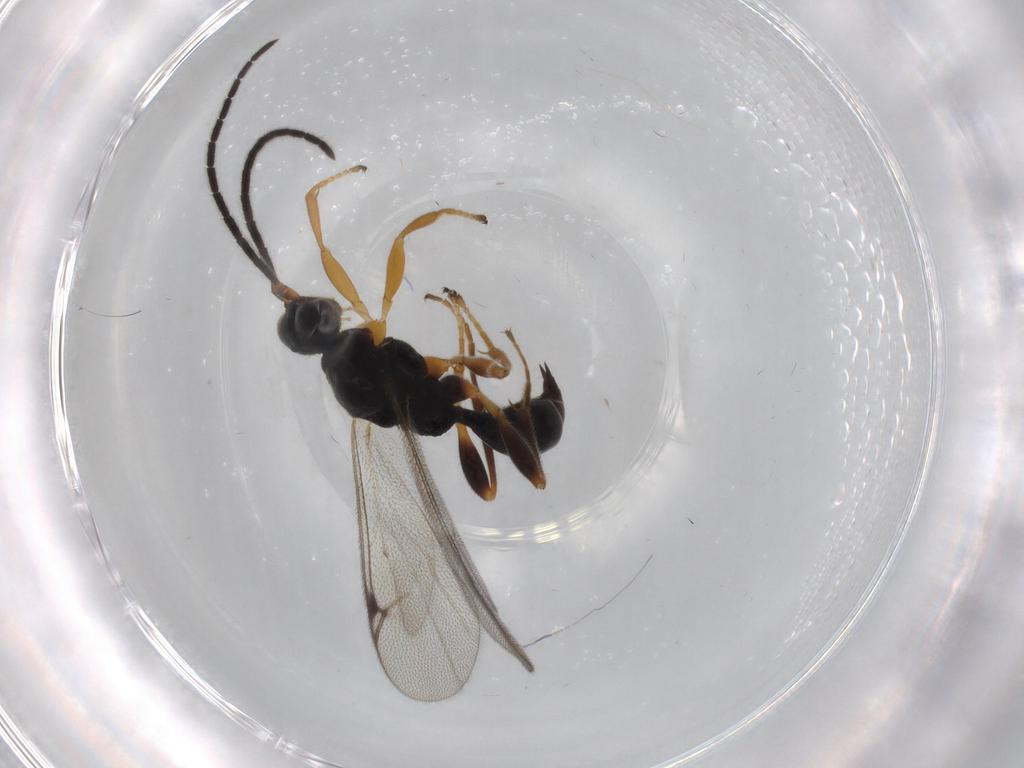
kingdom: Animalia
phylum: Arthropoda
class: Insecta
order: Hymenoptera
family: Proctotrupidae
